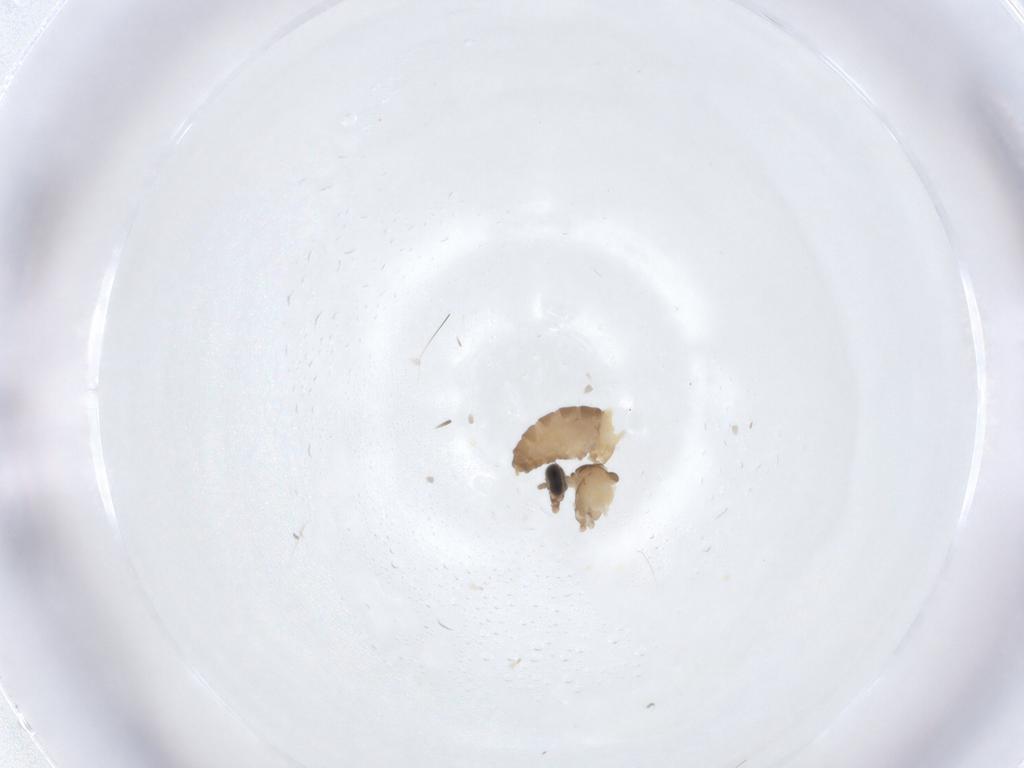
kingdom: Animalia
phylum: Arthropoda
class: Insecta
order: Diptera
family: Cecidomyiidae
